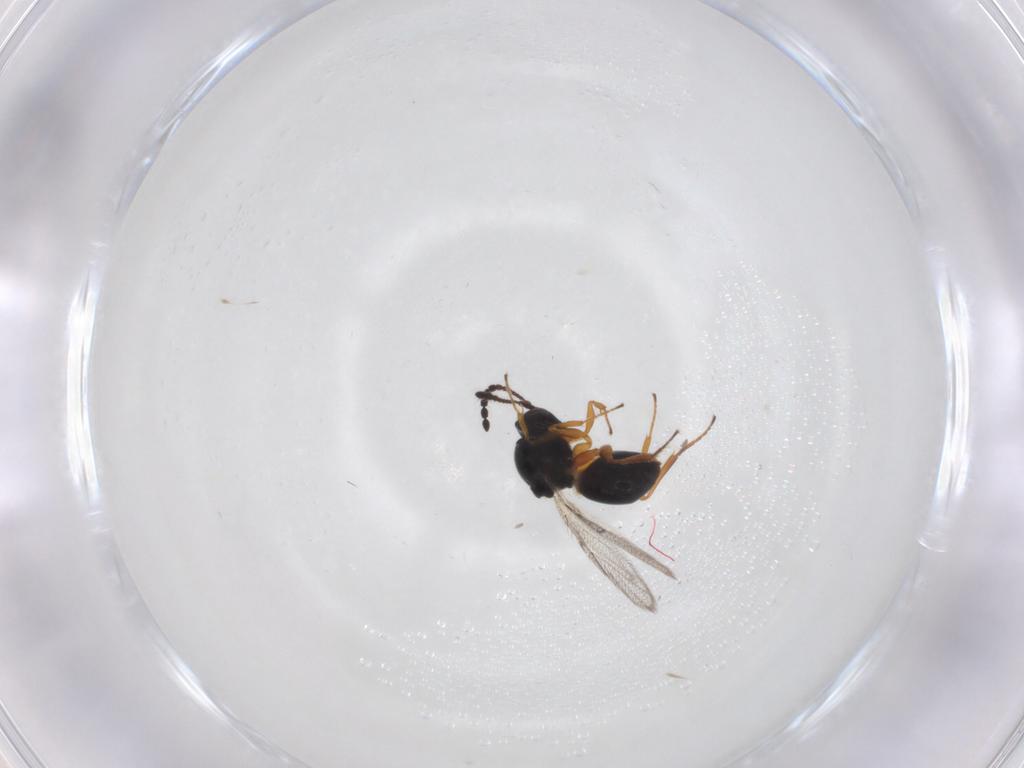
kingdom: Animalia
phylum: Arthropoda
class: Insecta
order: Hymenoptera
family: Figitidae
